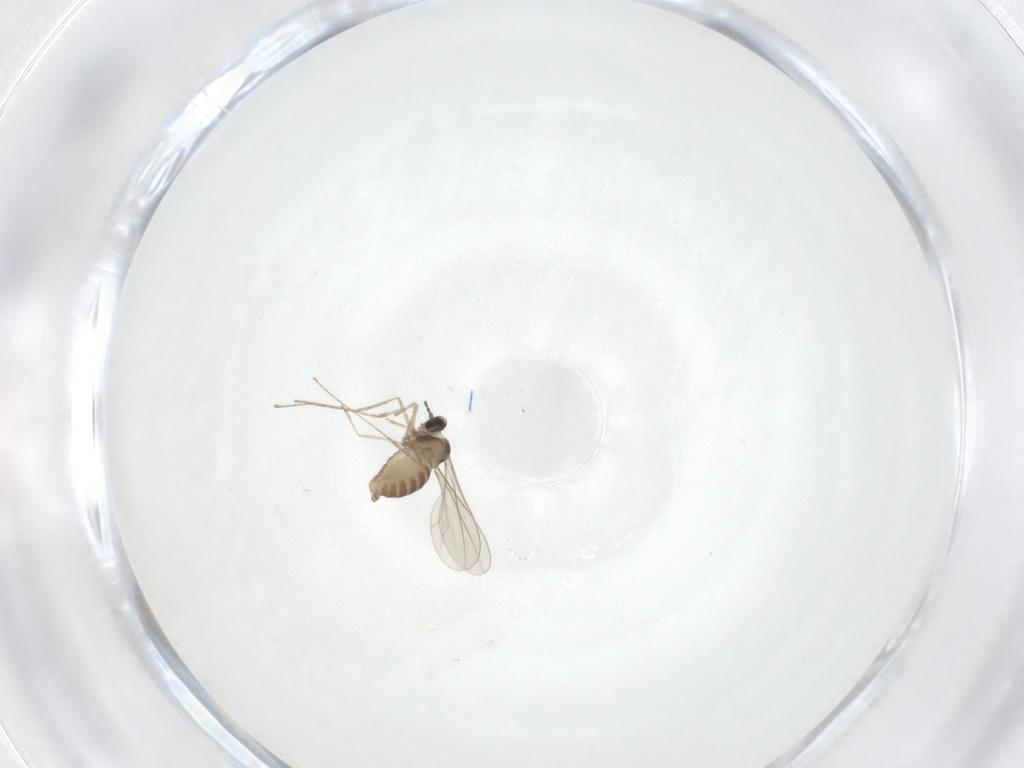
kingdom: Animalia
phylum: Arthropoda
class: Insecta
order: Diptera
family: Cecidomyiidae
